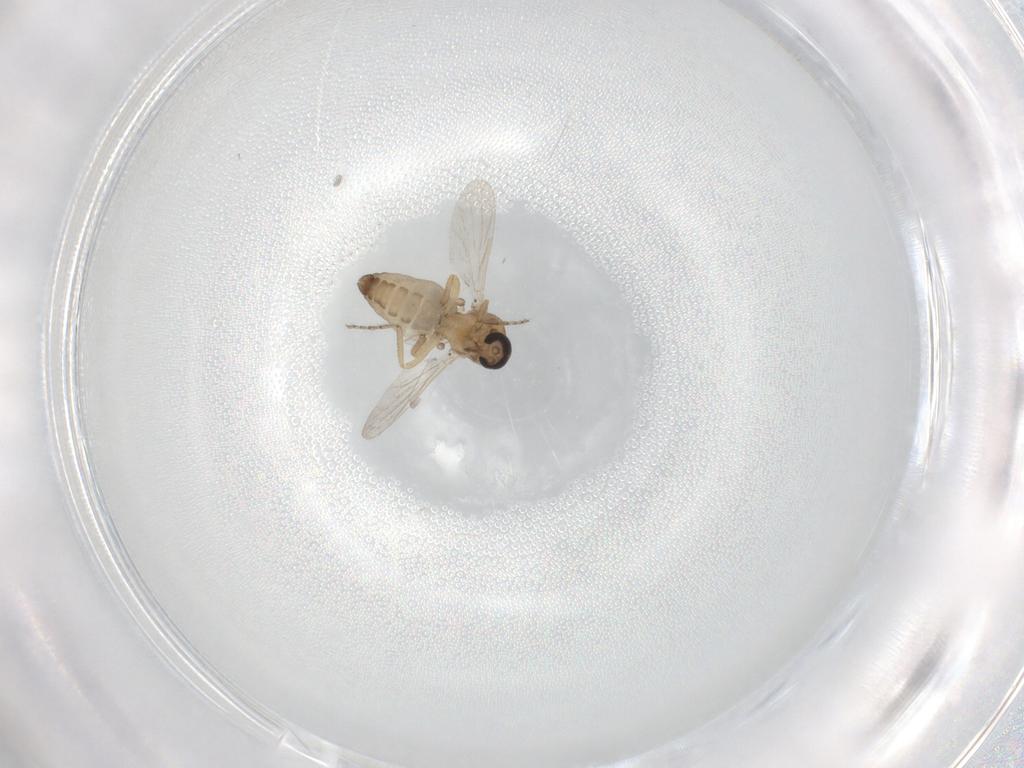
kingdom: Animalia
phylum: Arthropoda
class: Insecta
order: Diptera
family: Ceratopogonidae
